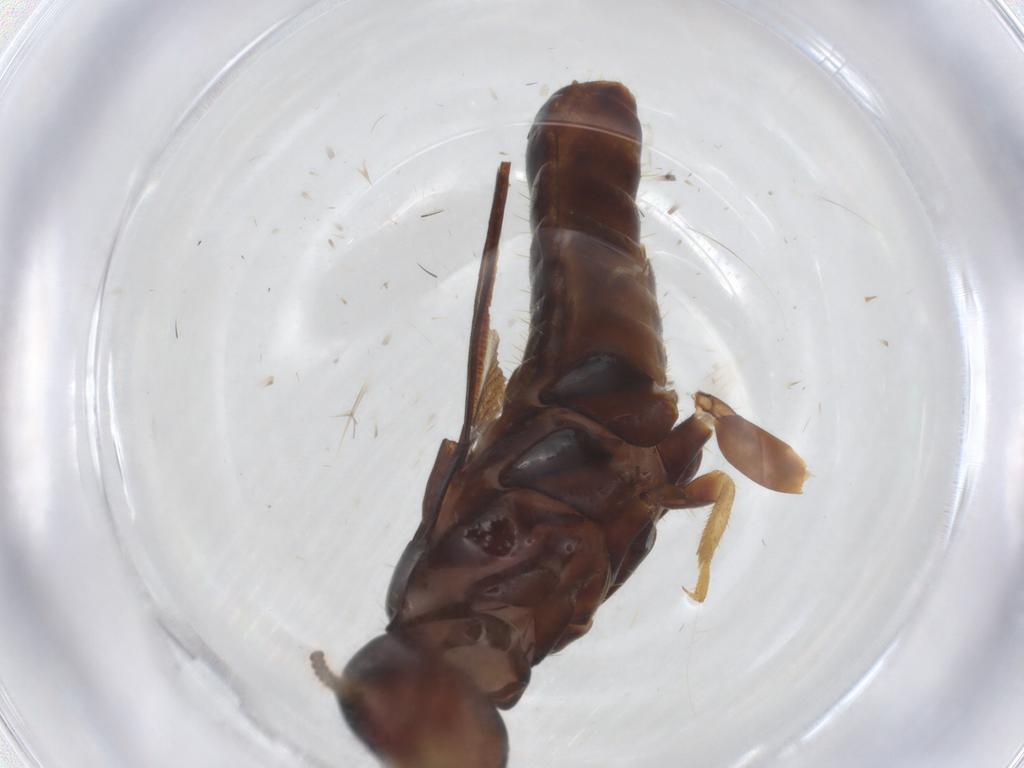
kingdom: Animalia
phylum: Arthropoda
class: Insecta
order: Blattodea
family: Kalotermitidae
